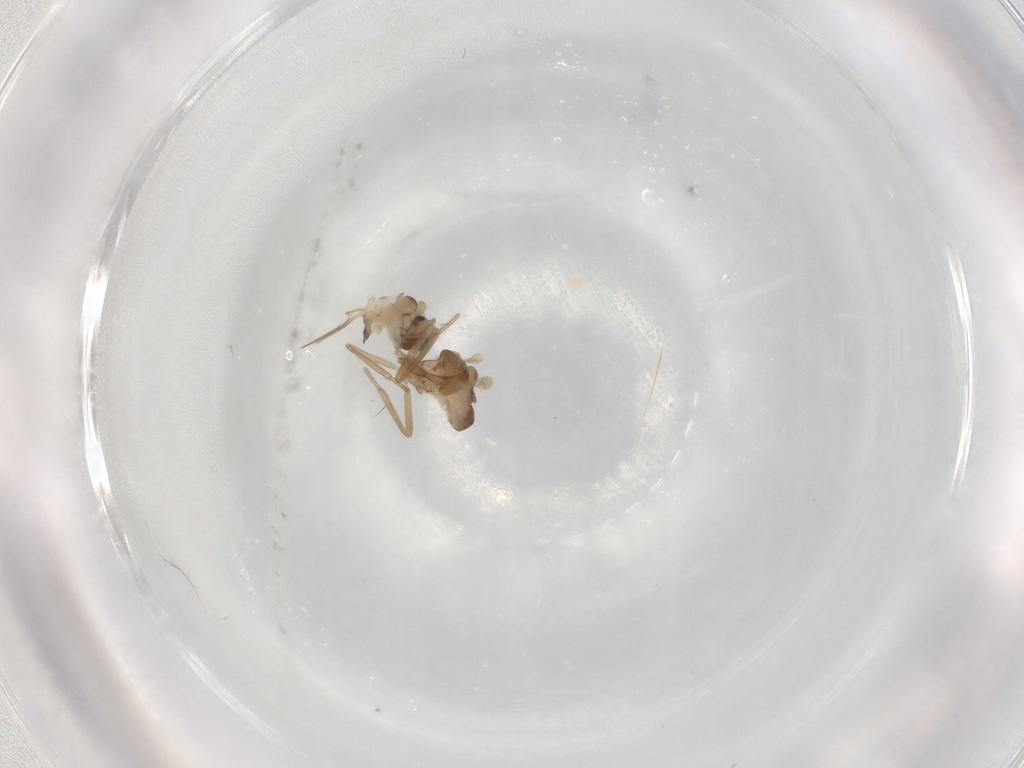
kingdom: Animalia
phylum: Arthropoda
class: Insecta
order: Diptera
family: Cecidomyiidae
